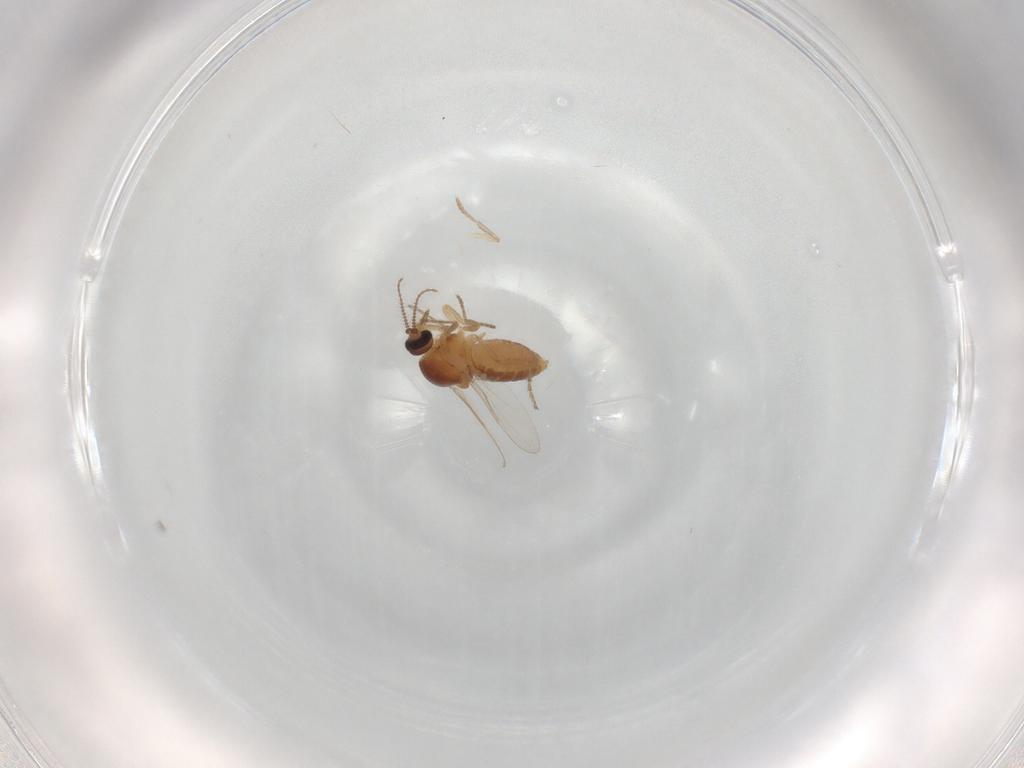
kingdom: Animalia
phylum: Arthropoda
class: Insecta
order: Diptera
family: Ceratopogonidae
